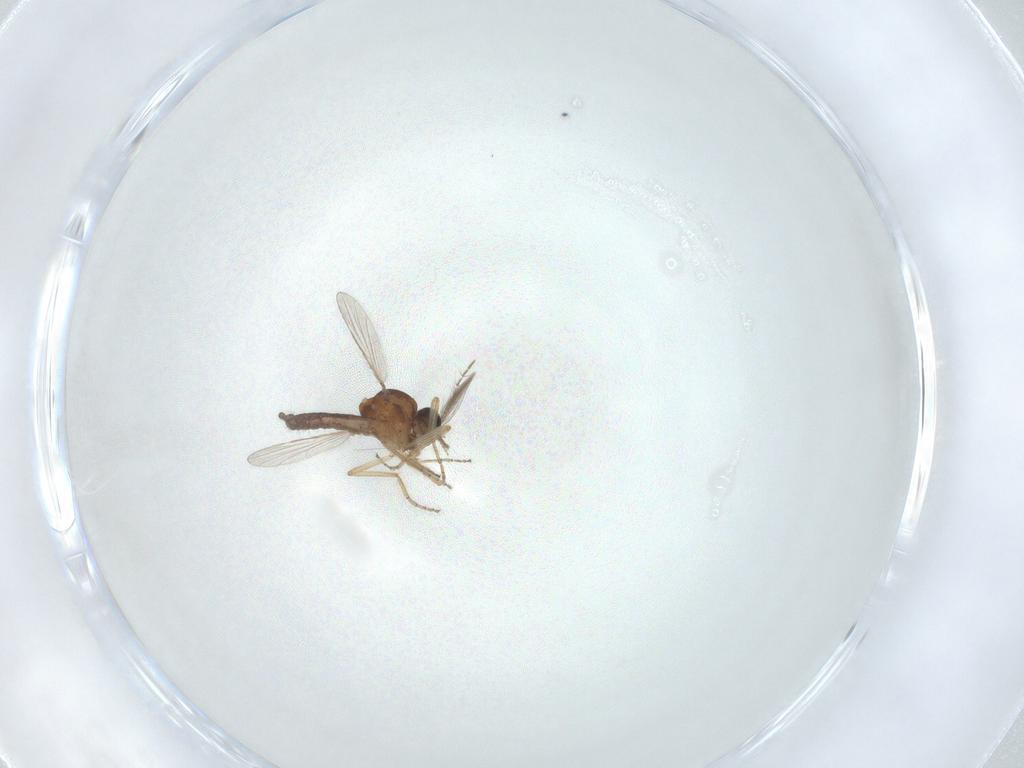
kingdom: Animalia
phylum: Arthropoda
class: Insecta
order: Diptera
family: Ceratopogonidae
